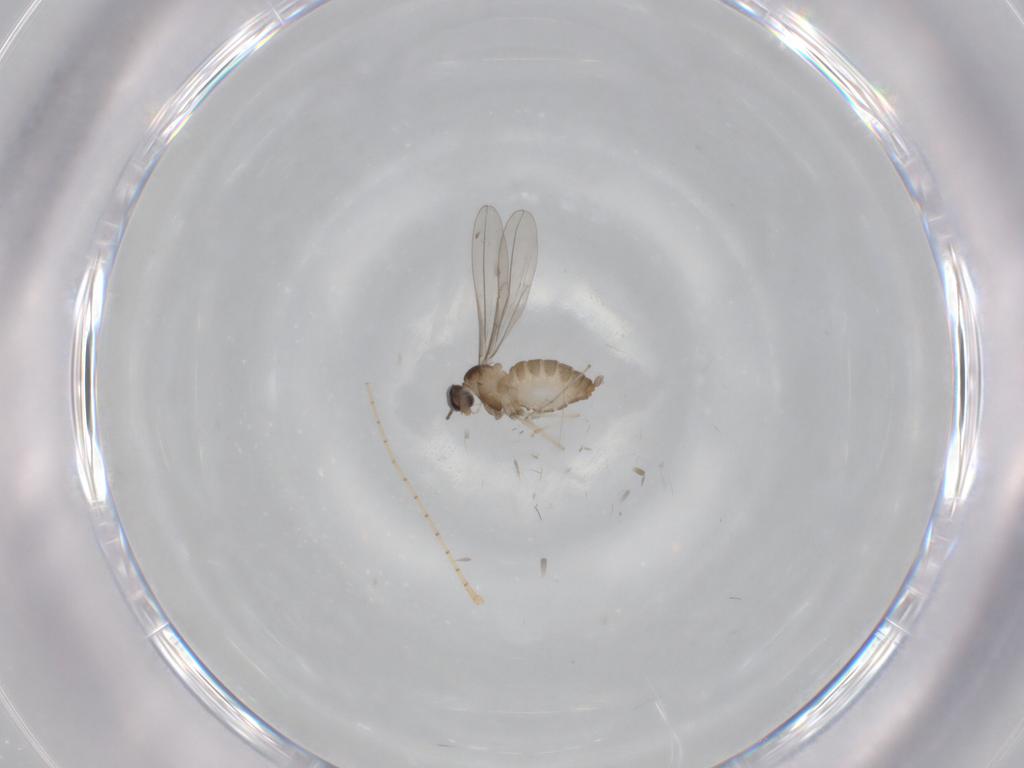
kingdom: Animalia
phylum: Arthropoda
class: Insecta
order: Diptera
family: Cecidomyiidae
